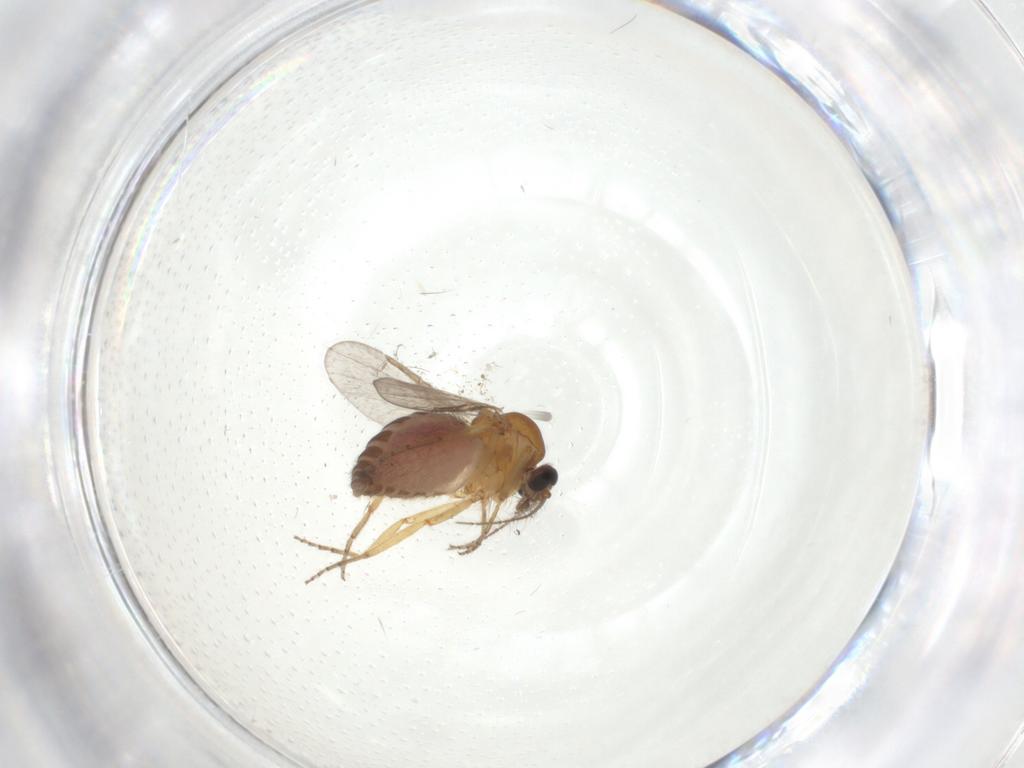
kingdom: Animalia
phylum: Arthropoda
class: Insecta
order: Diptera
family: Ceratopogonidae
